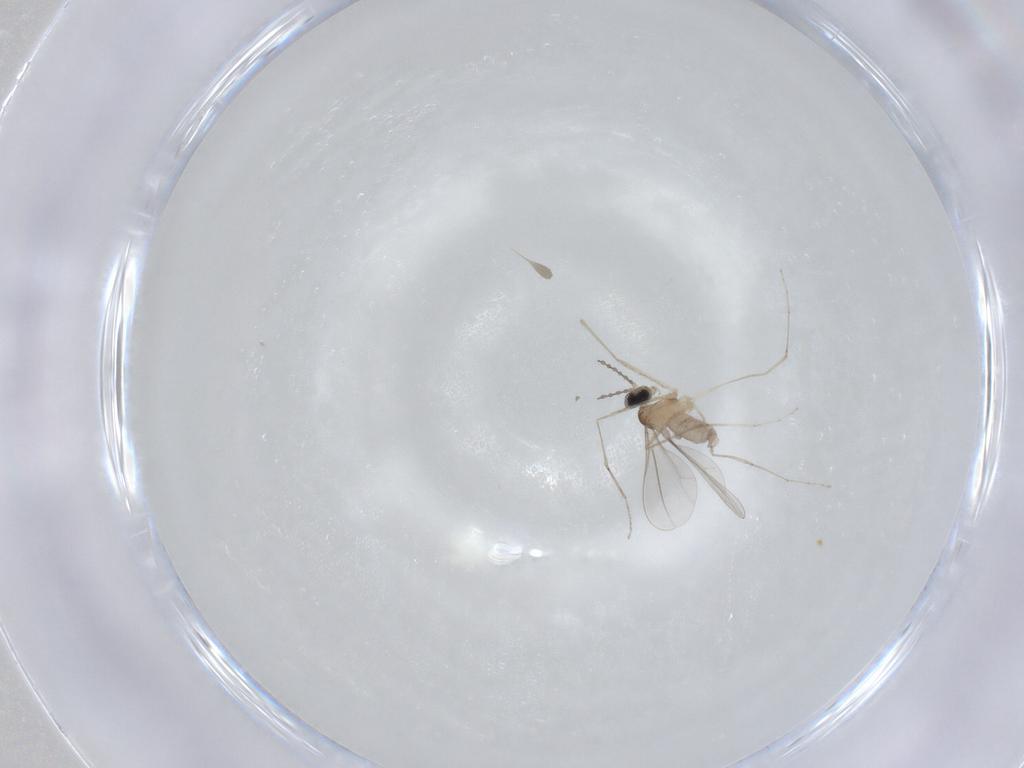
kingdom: Animalia
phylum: Arthropoda
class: Insecta
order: Diptera
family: Cecidomyiidae
